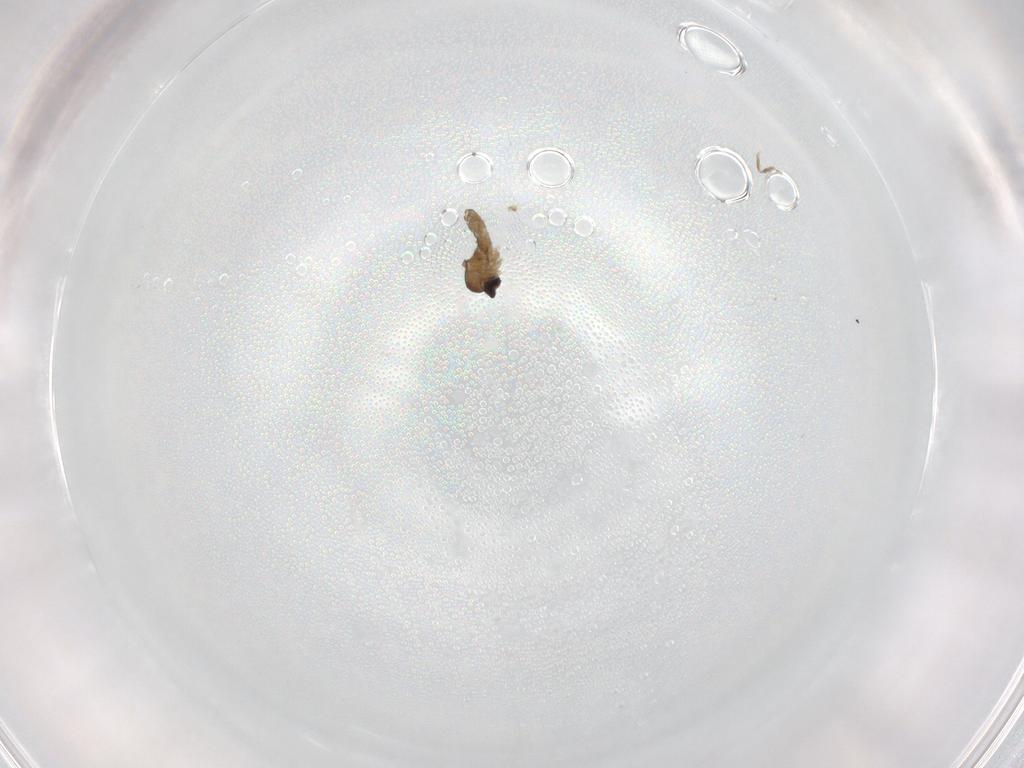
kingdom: Animalia
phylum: Arthropoda
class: Insecta
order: Diptera
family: Cecidomyiidae
